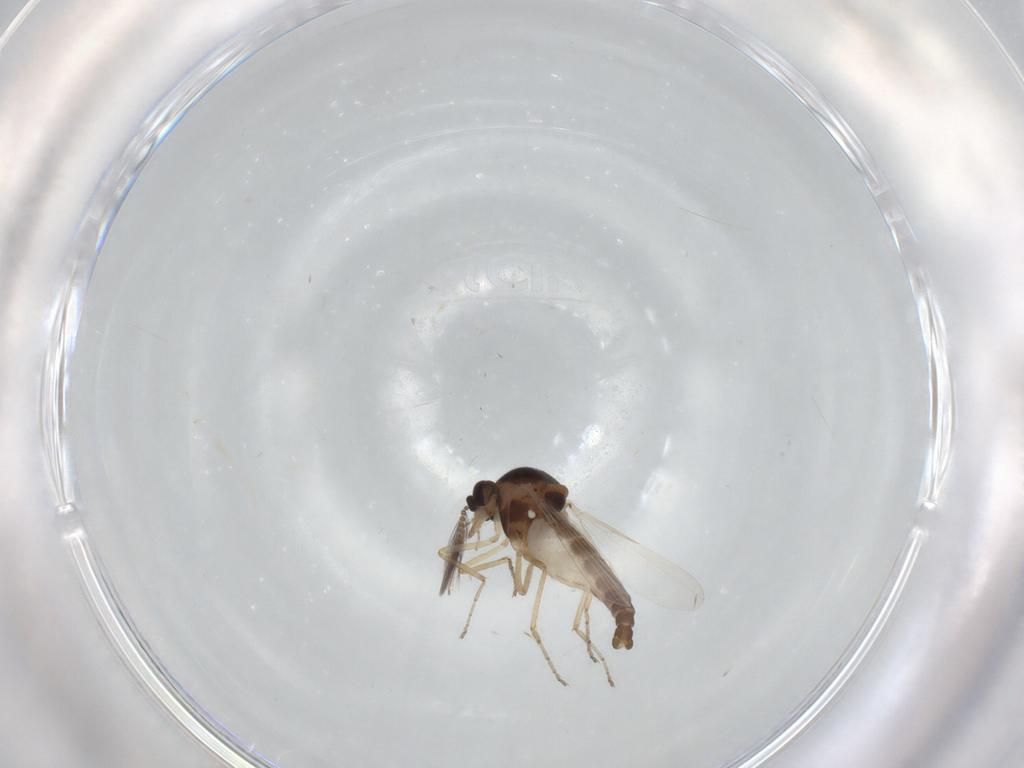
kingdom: Animalia
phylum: Arthropoda
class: Insecta
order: Diptera
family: Ceratopogonidae
